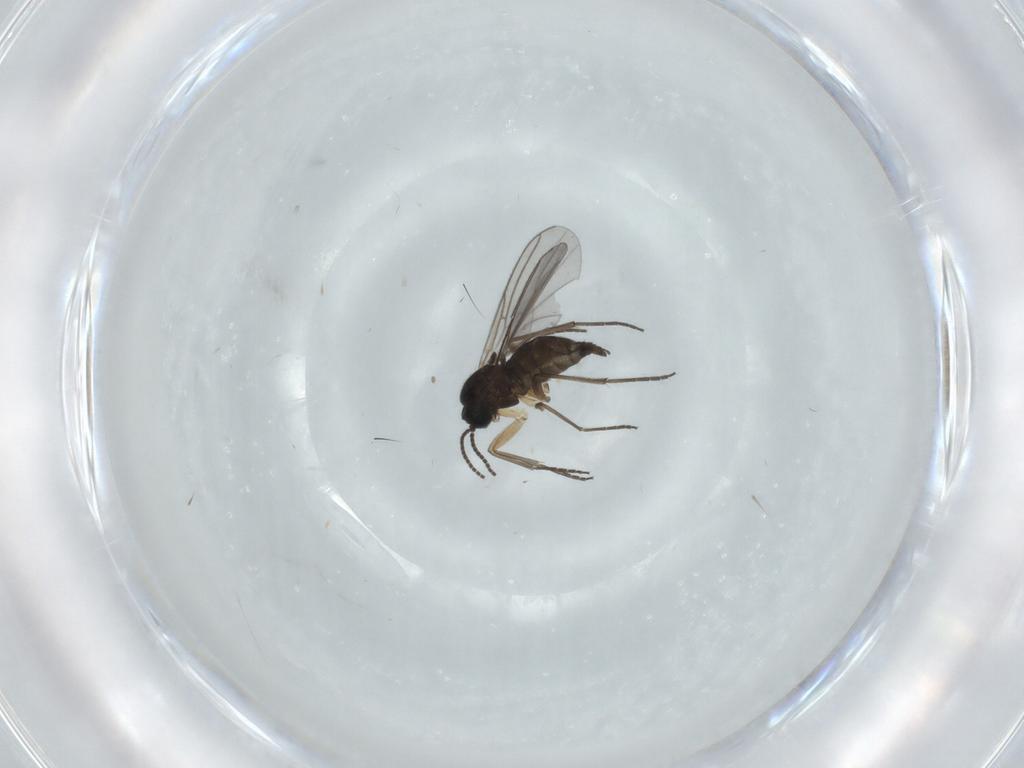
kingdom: Animalia
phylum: Arthropoda
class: Insecta
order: Diptera
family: Sciaridae
